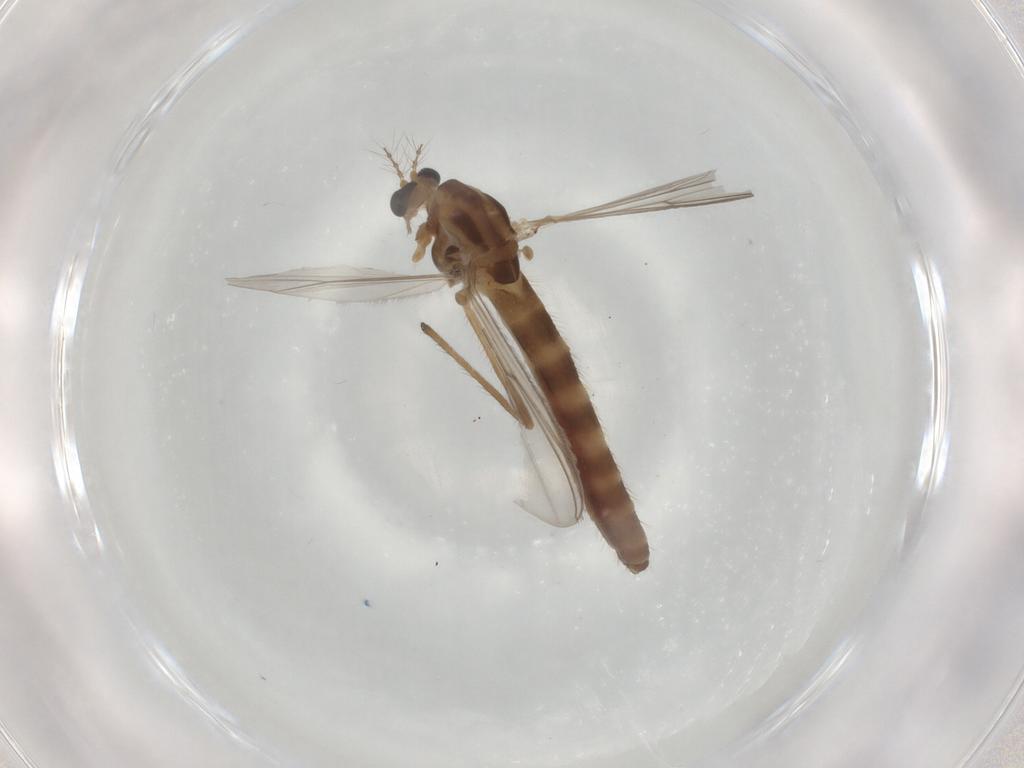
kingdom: Animalia
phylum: Arthropoda
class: Insecta
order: Diptera
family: Chironomidae
